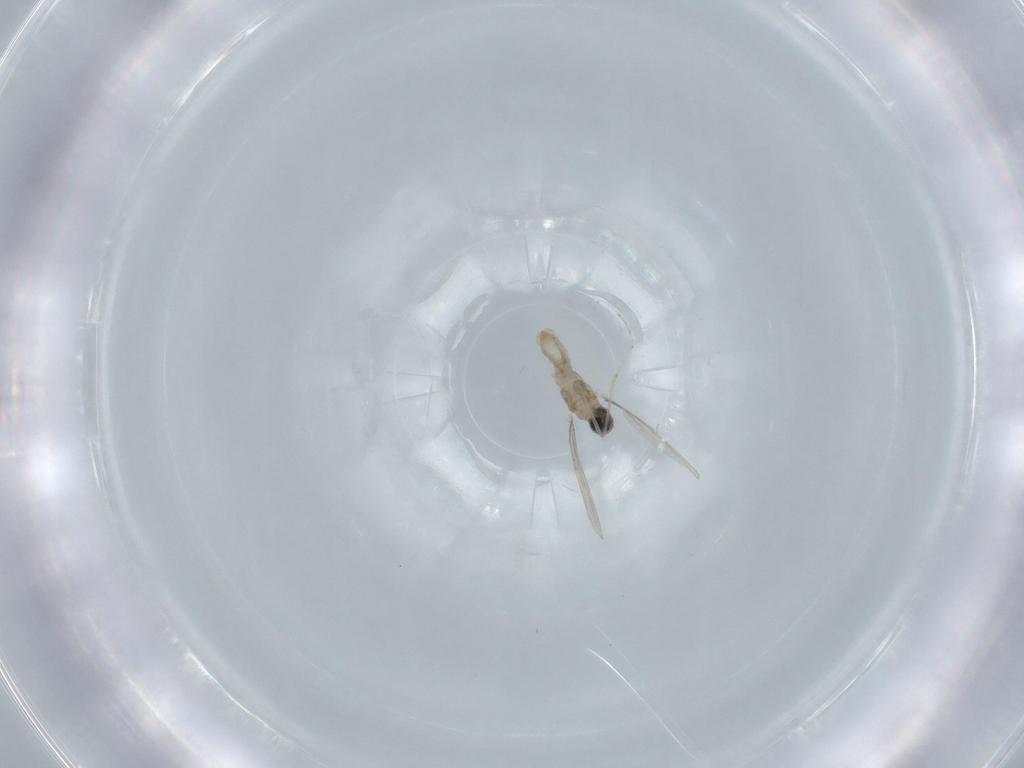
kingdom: Animalia
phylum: Arthropoda
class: Insecta
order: Diptera
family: Cecidomyiidae
